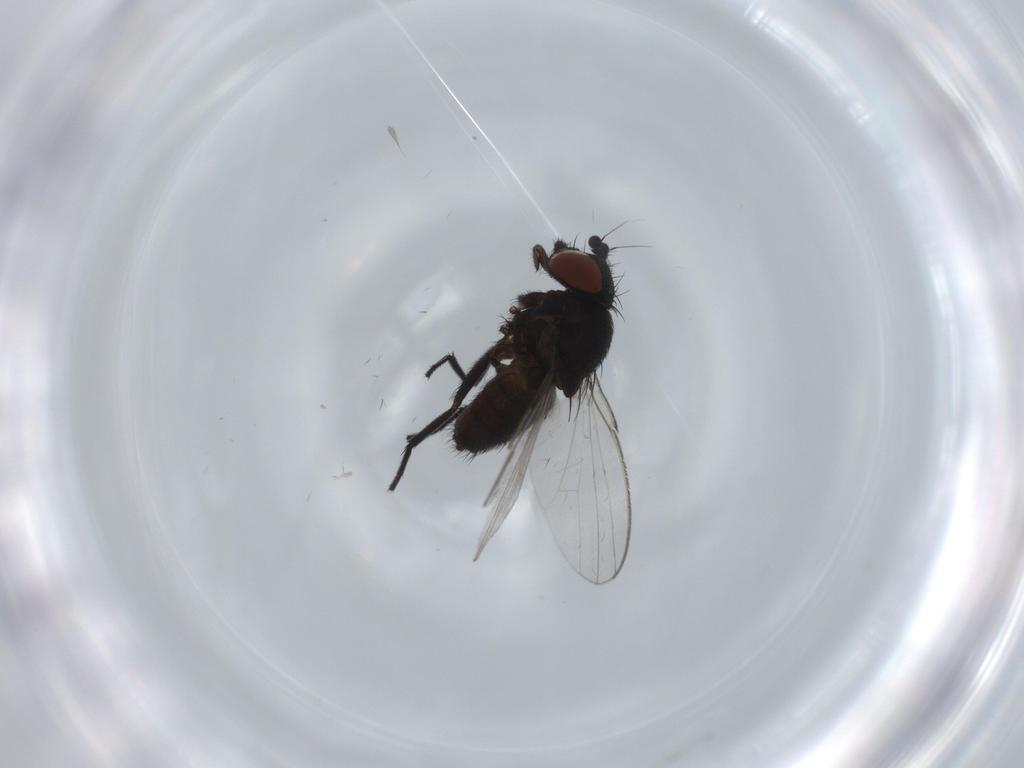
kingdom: Animalia
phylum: Arthropoda
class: Insecta
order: Diptera
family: Milichiidae
